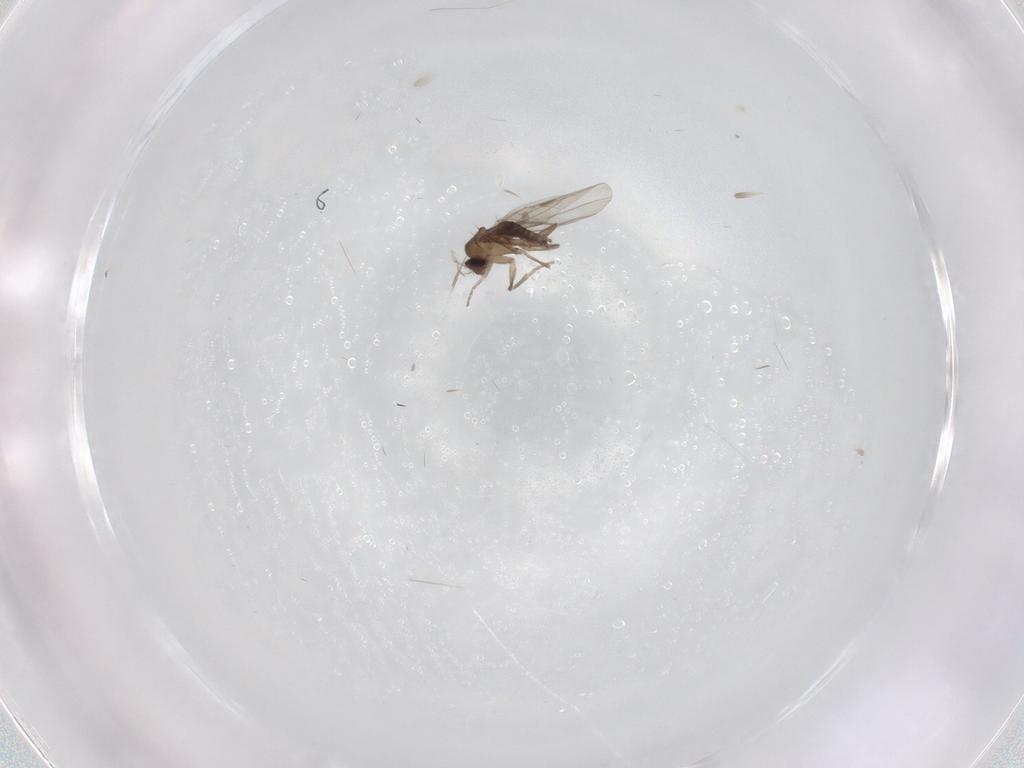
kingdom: Animalia
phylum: Arthropoda
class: Insecta
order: Diptera
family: Phoridae
